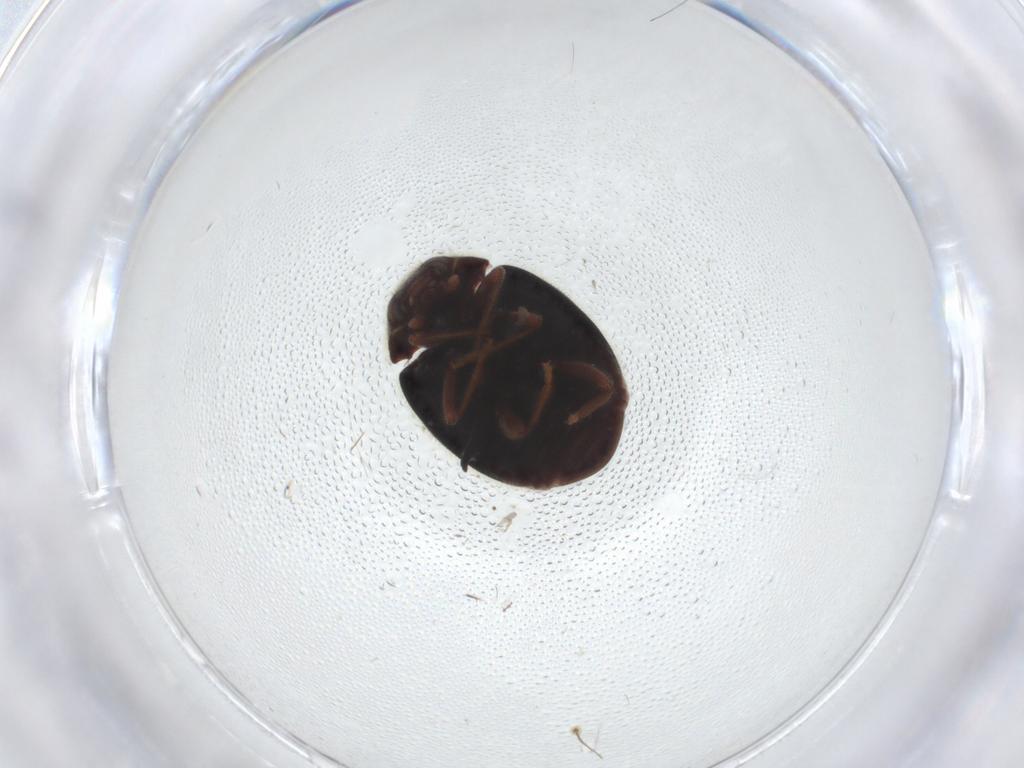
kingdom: Animalia
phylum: Arthropoda
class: Insecta
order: Coleoptera
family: Coccinellidae
